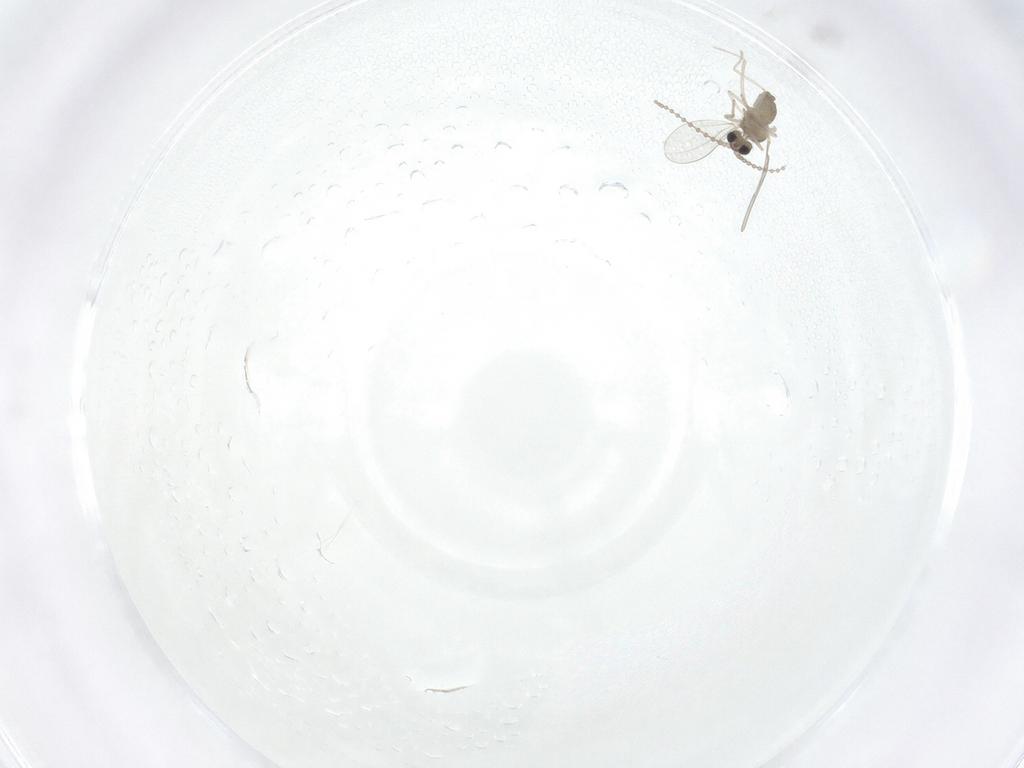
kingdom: Animalia
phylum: Arthropoda
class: Insecta
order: Diptera
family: Cecidomyiidae
